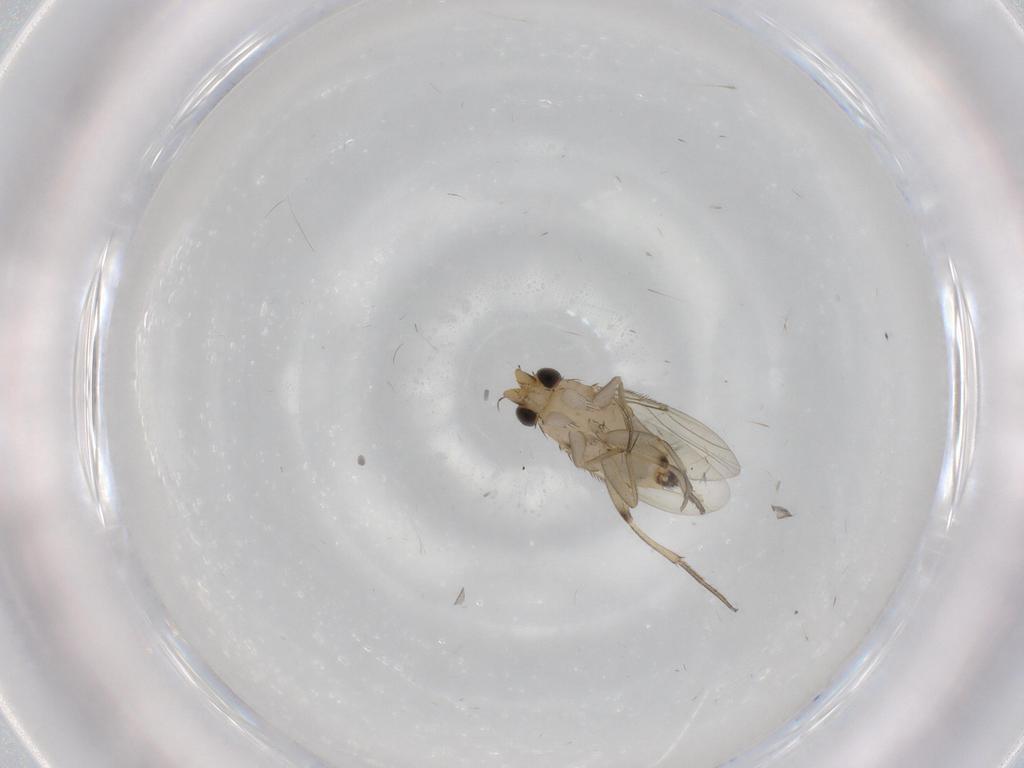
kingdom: Animalia
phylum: Arthropoda
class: Insecta
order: Diptera
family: Phoridae
